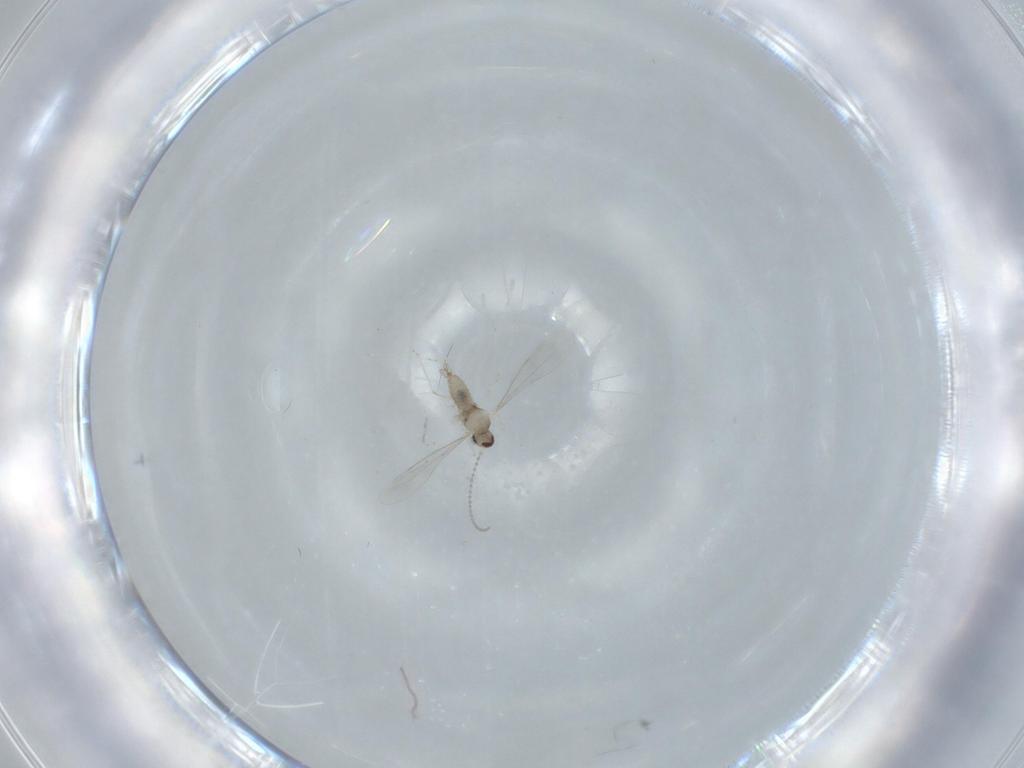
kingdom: Animalia
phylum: Arthropoda
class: Insecta
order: Diptera
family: Cecidomyiidae
